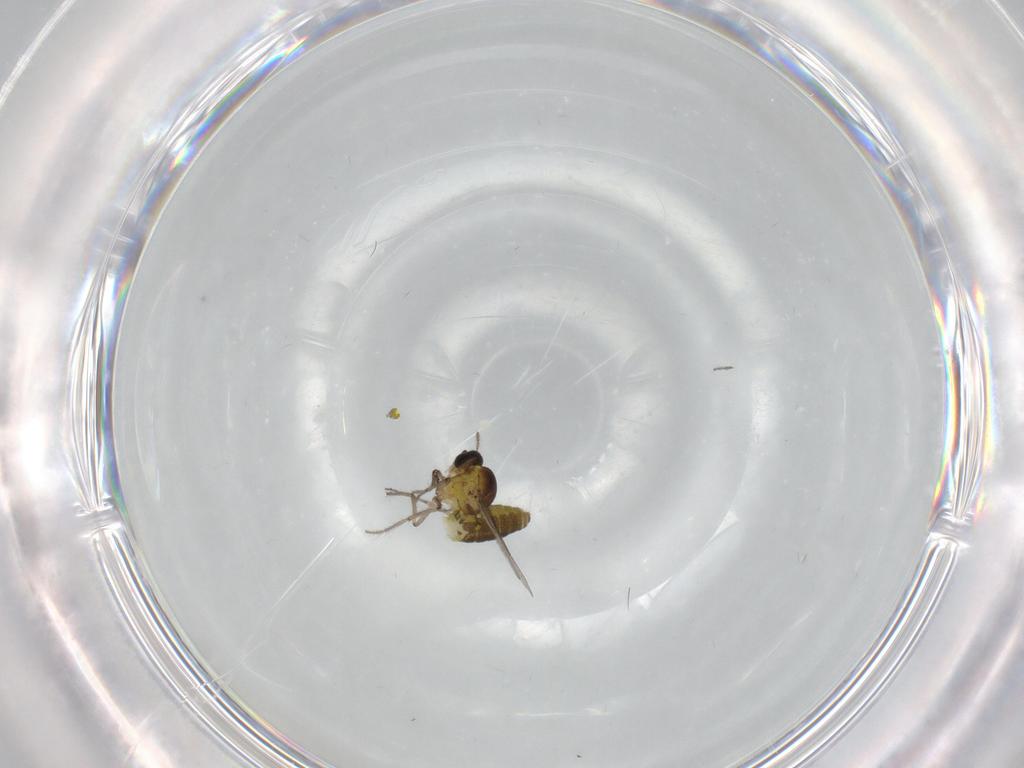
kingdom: Animalia
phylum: Arthropoda
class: Insecta
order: Diptera
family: Ceratopogonidae
